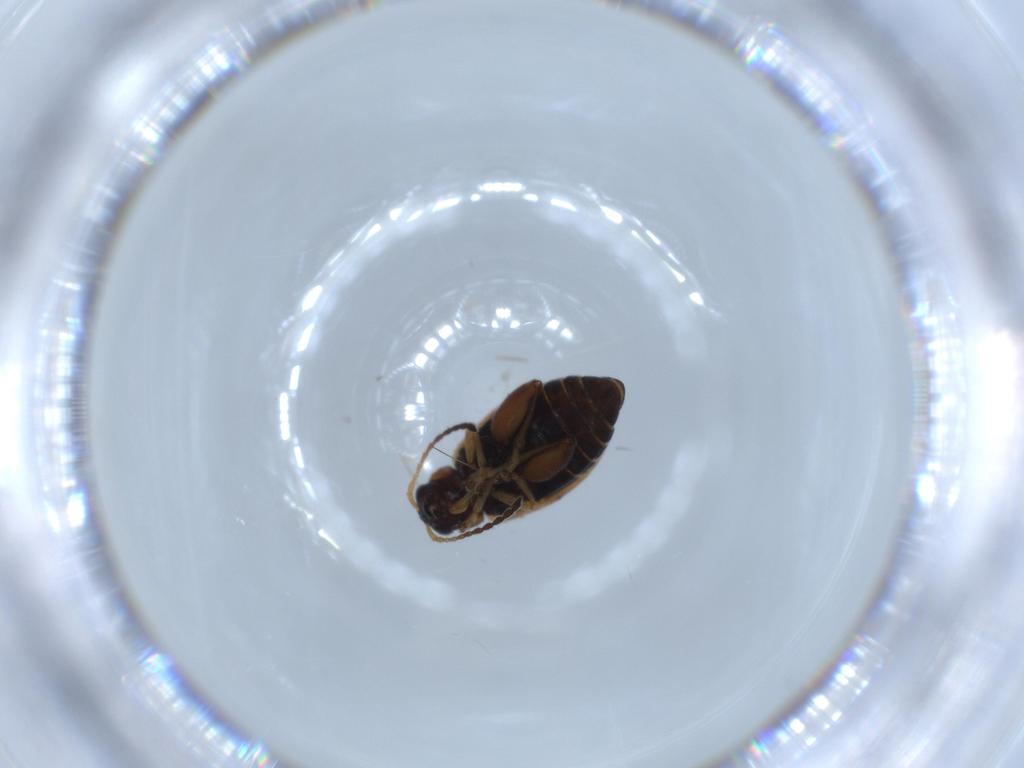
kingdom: Animalia
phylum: Arthropoda
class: Insecta
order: Coleoptera
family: Chrysomelidae
